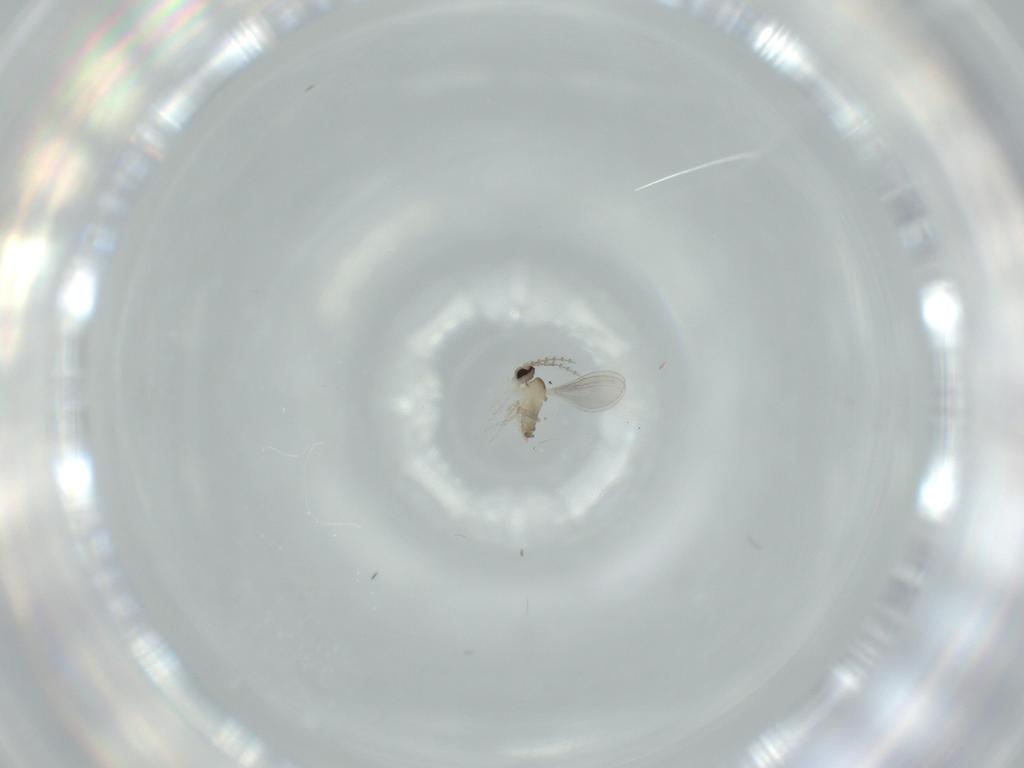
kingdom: Animalia
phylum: Arthropoda
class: Insecta
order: Diptera
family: Cecidomyiidae
